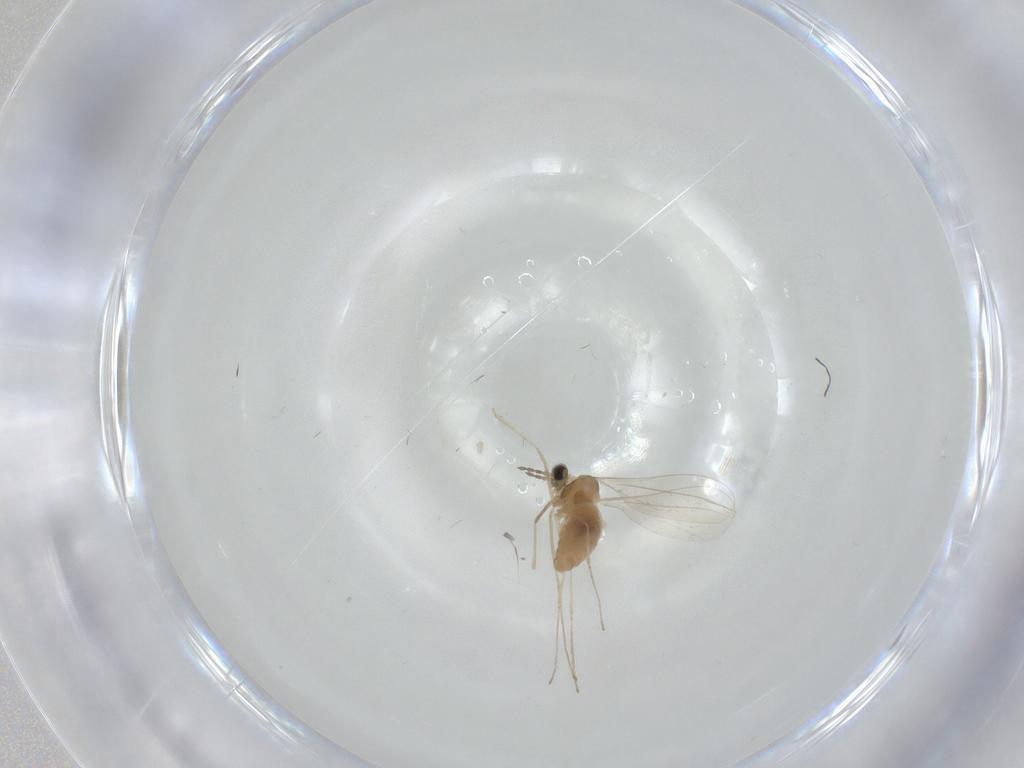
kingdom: Animalia
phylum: Arthropoda
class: Insecta
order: Diptera
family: Cecidomyiidae
